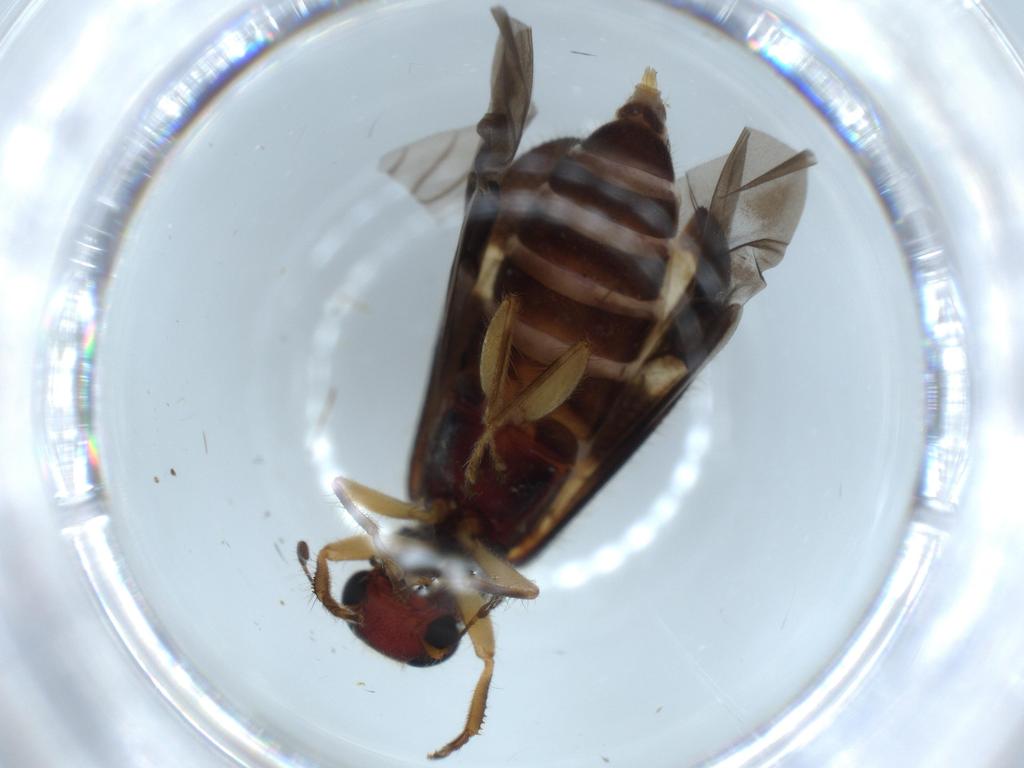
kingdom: Animalia
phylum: Arthropoda
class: Insecta
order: Coleoptera
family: Cleridae
